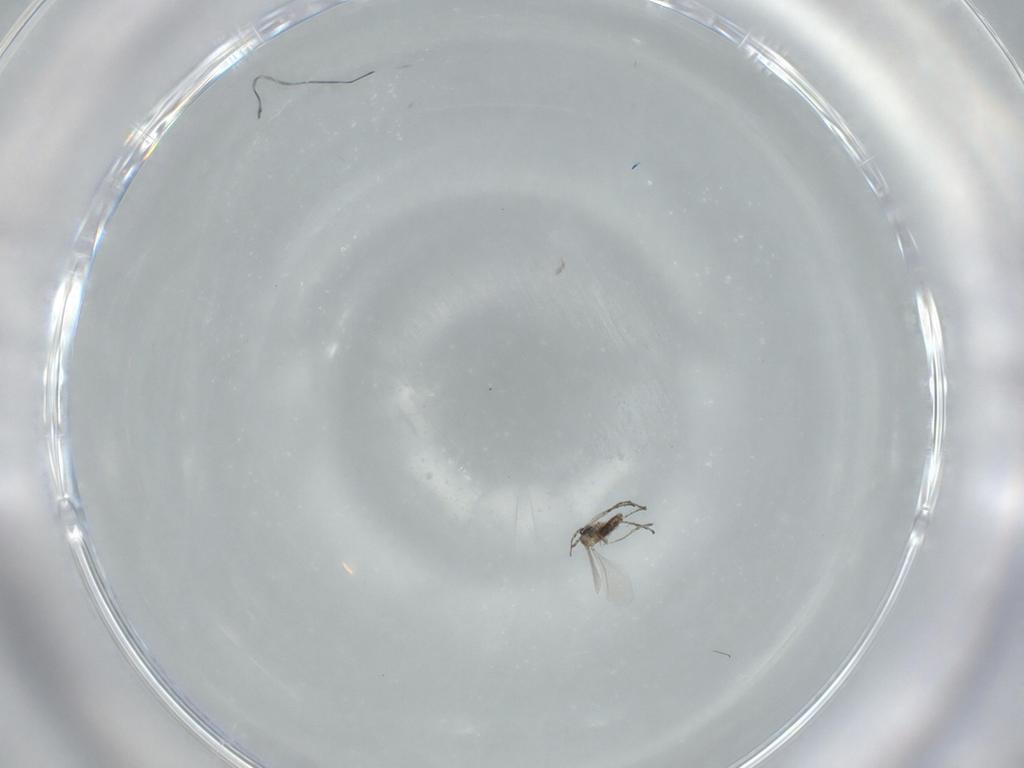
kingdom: Animalia
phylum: Arthropoda
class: Insecta
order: Diptera
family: Cecidomyiidae
